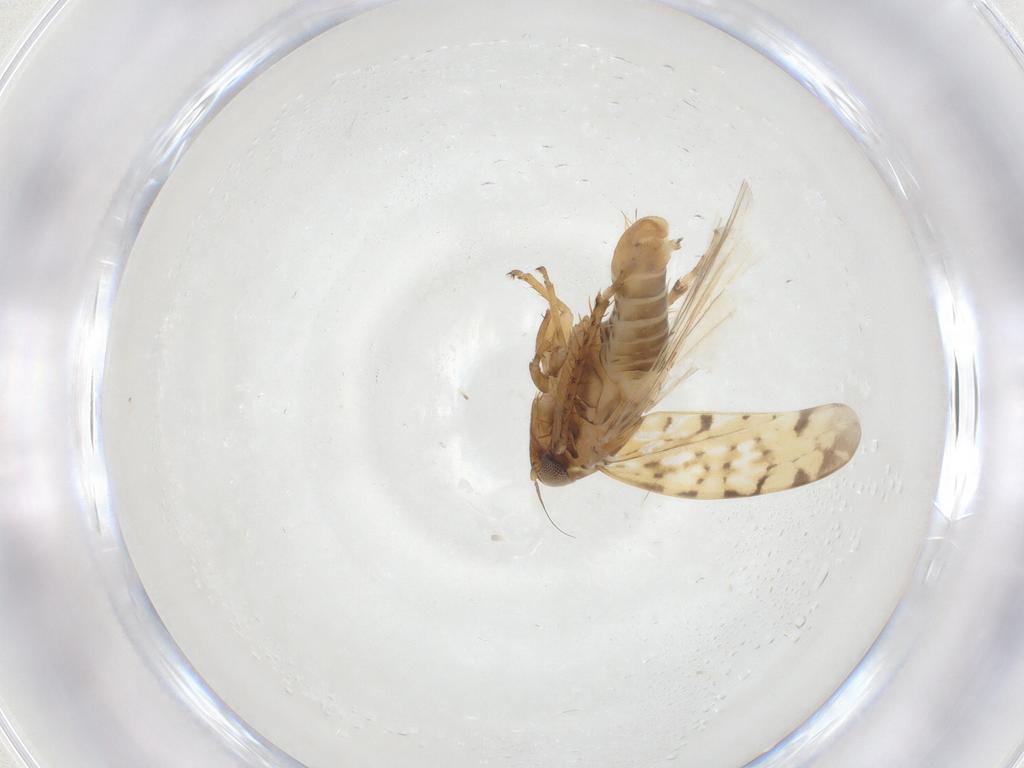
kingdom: Animalia
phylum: Arthropoda
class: Insecta
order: Hemiptera
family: Cicadellidae
